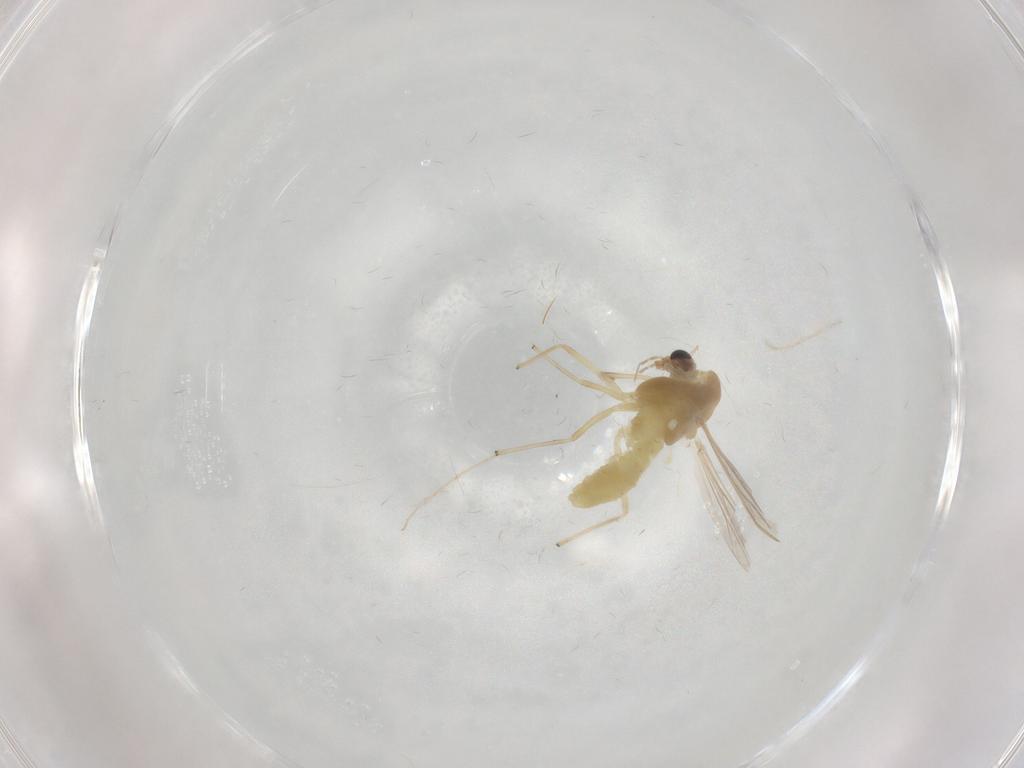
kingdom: Animalia
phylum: Arthropoda
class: Insecta
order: Diptera
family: Chironomidae
